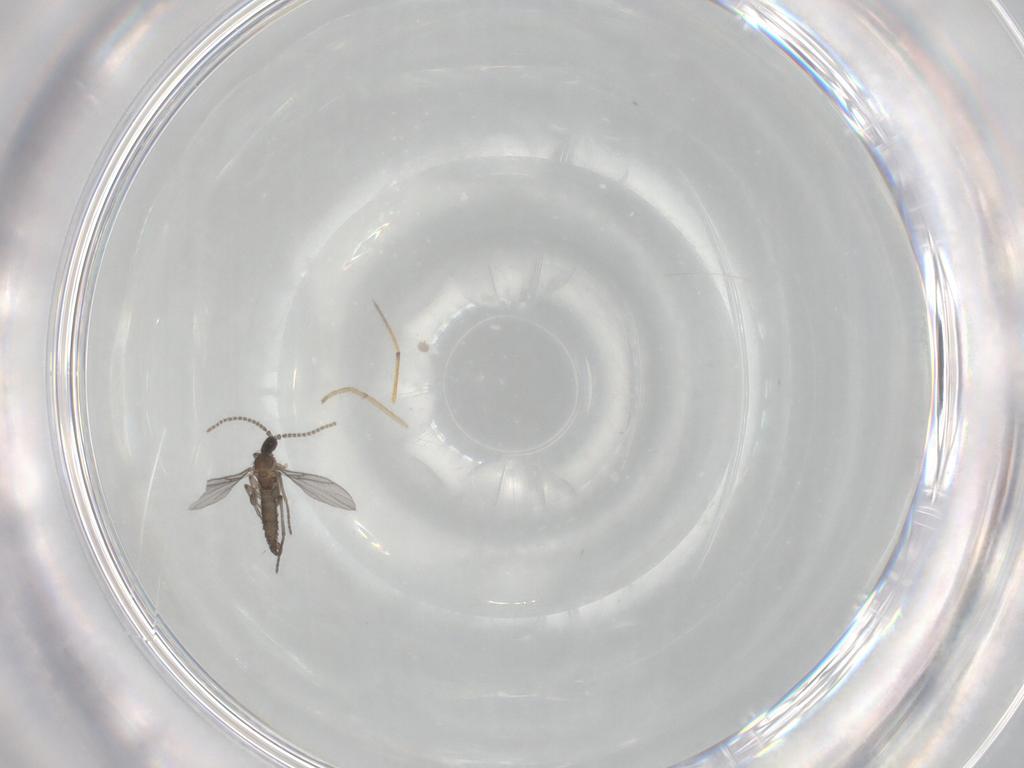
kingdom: Animalia
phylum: Arthropoda
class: Insecta
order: Diptera
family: Cecidomyiidae
